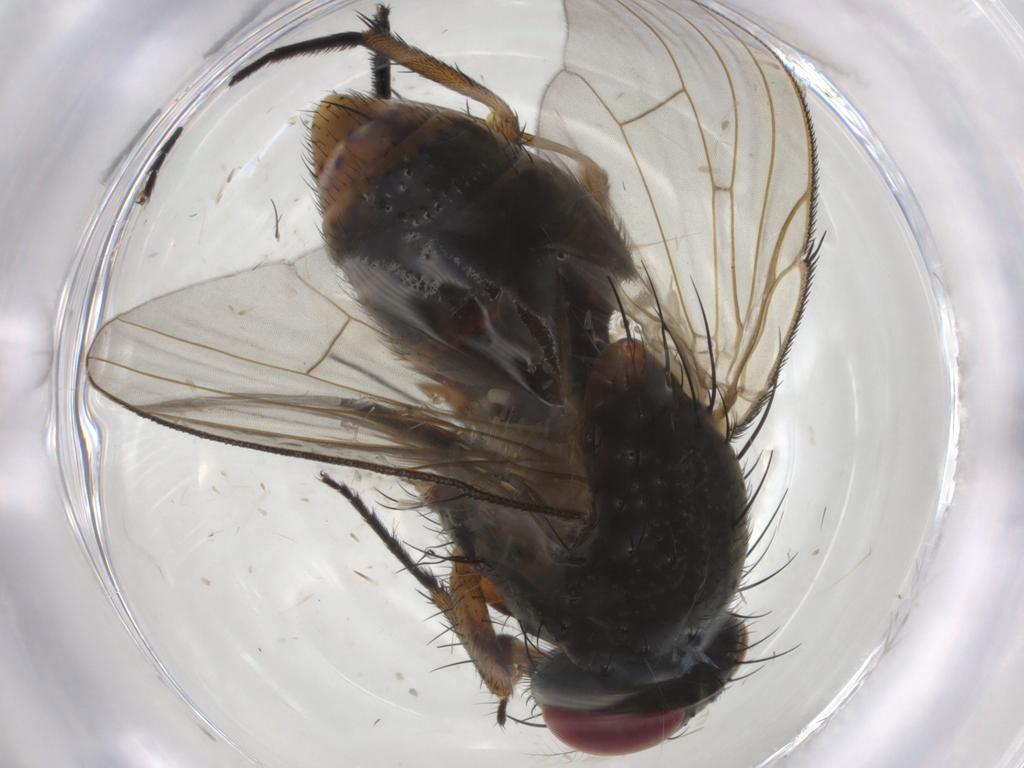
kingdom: Animalia
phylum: Arthropoda
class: Insecta
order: Diptera
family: Muscidae
